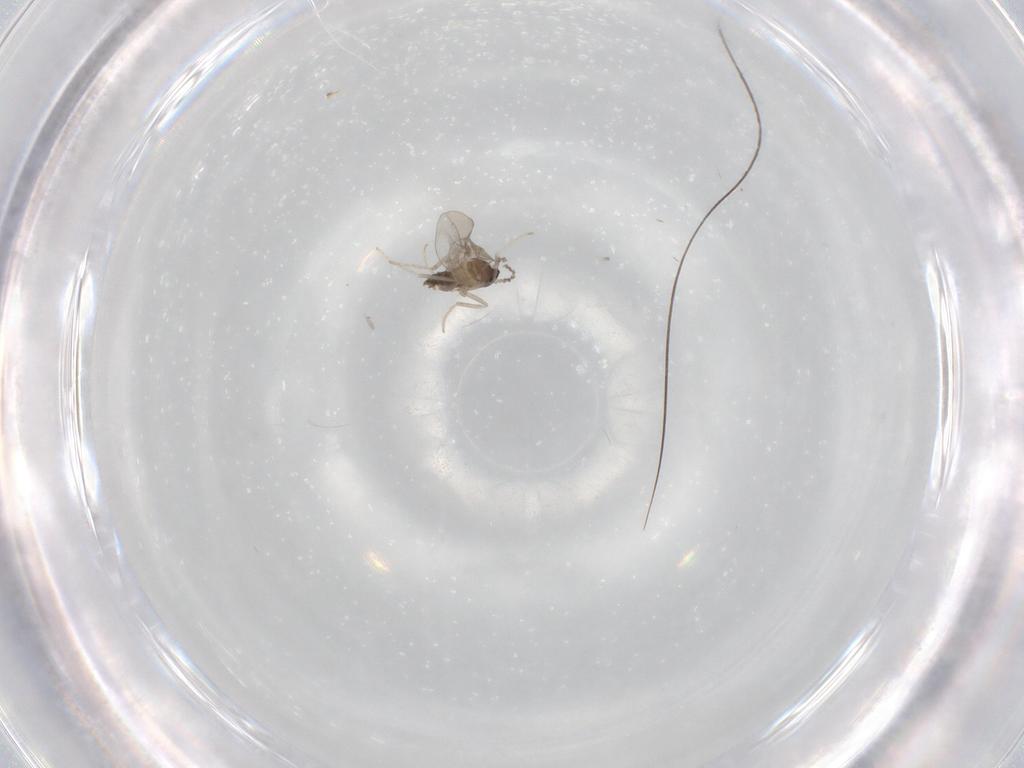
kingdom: Animalia
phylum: Arthropoda
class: Insecta
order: Diptera
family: Cecidomyiidae
